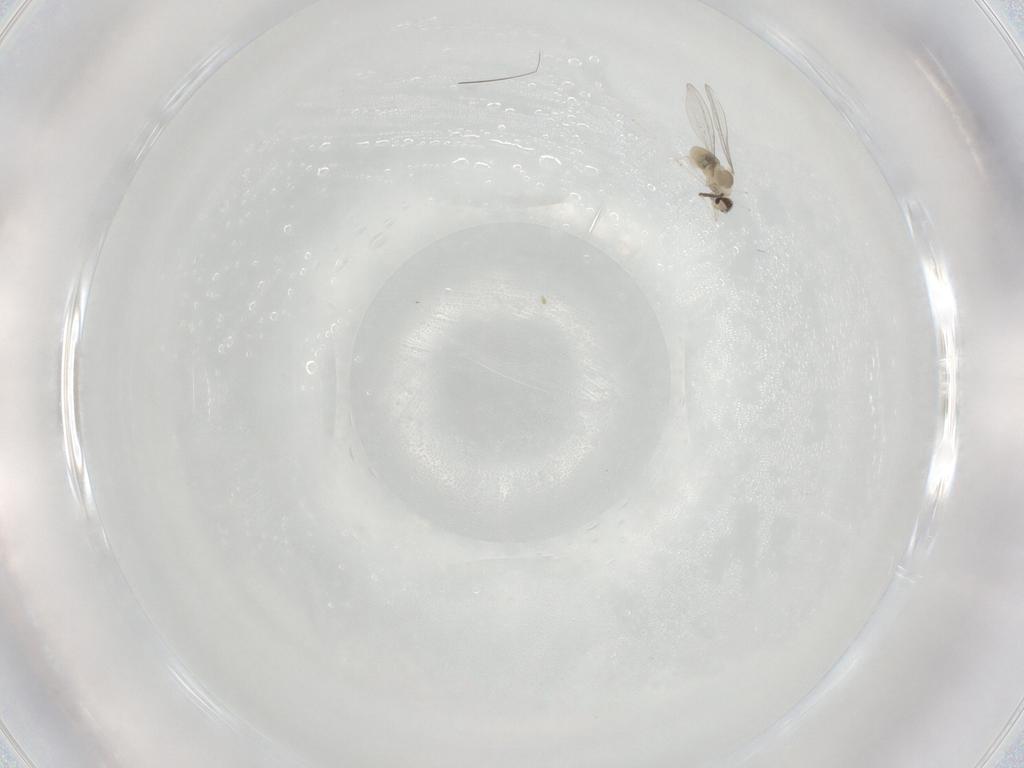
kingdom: Animalia
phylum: Arthropoda
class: Insecta
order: Diptera
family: Cecidomyiidae
